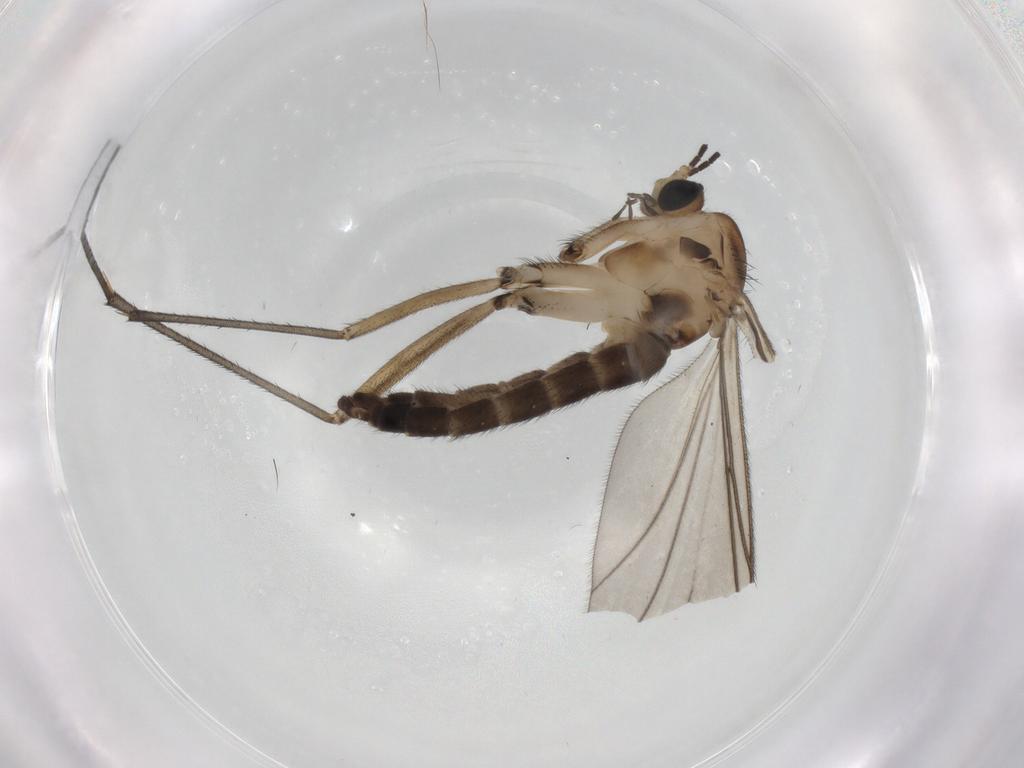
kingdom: Animalia
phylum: Arthropoda
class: Insecta
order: Diptera
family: Sciaridae
